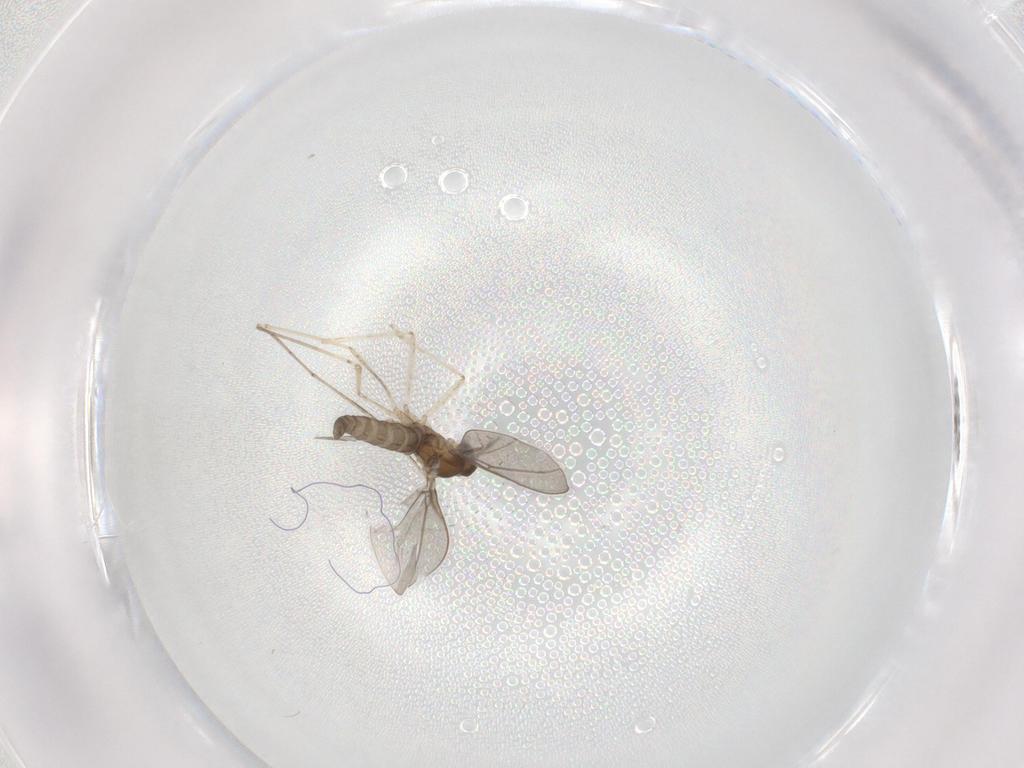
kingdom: Animalia
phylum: Arthropoda
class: Insecta
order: Diptera
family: Cecidomyiidae
